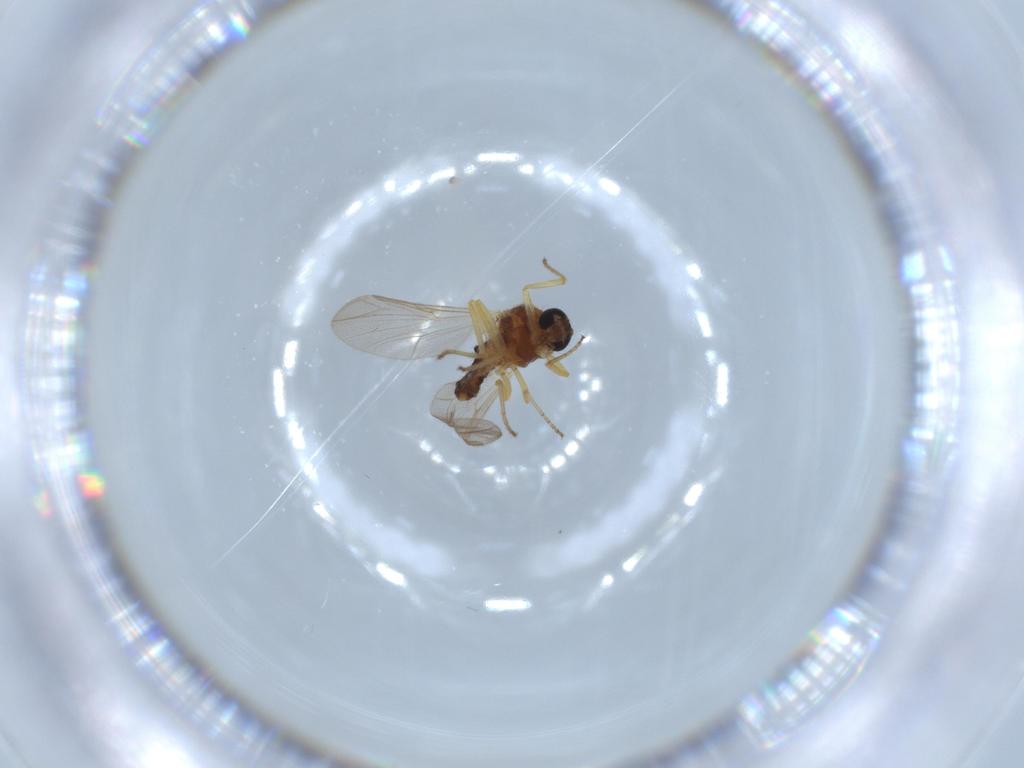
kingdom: Animalia
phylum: Arthropoda
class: Insecta
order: Diptera
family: Ceratopogonidae
